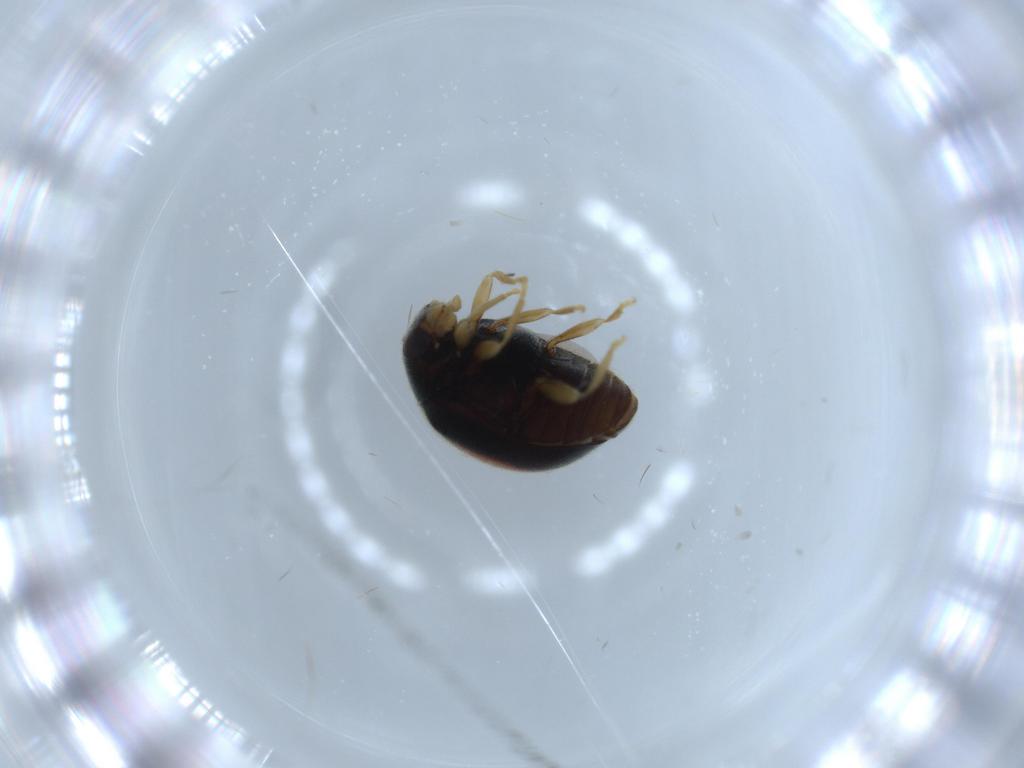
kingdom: Animalia
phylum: Arthropoda
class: Insecta
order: Coleoptera
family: Coccinellidae
